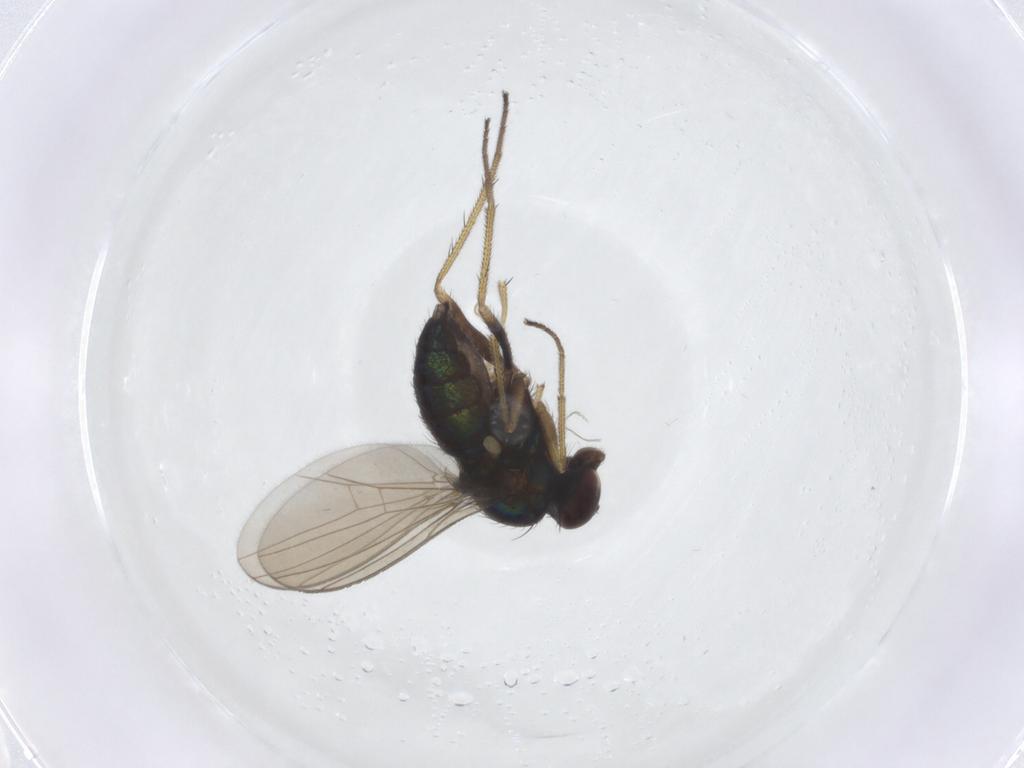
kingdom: Animalia
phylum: Arthropoda
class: Insecta
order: Diptera
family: Dolichopodidae
